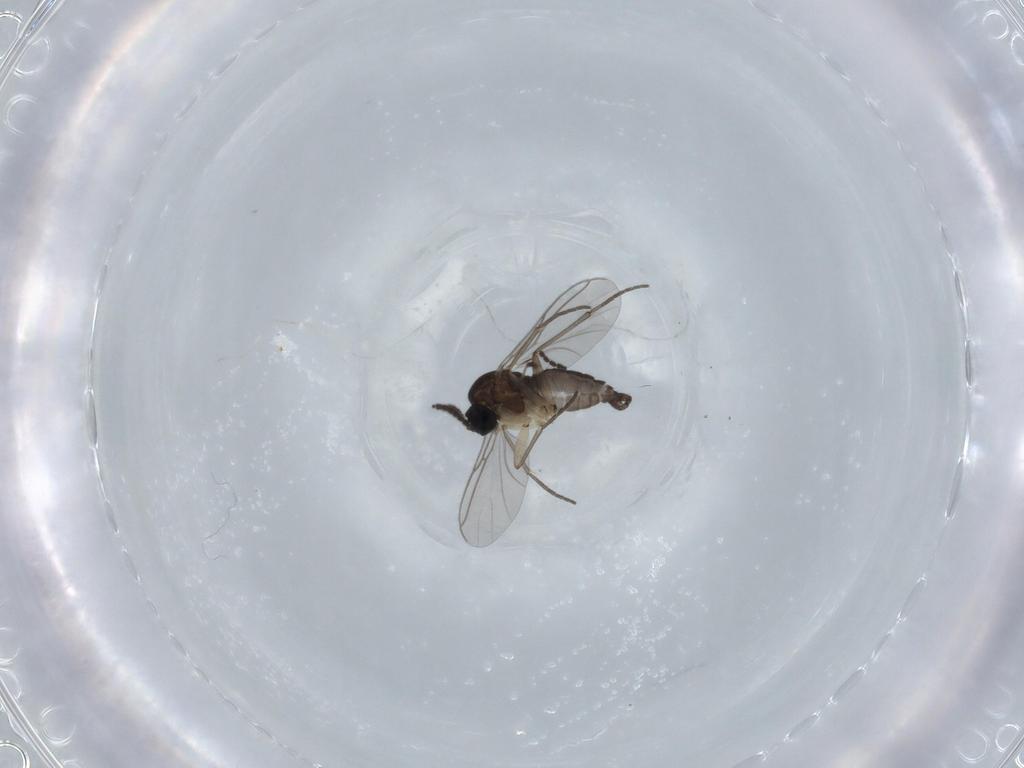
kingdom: Animalia
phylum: Arthropoda
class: Insecta
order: Diptera
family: Sciaridae
